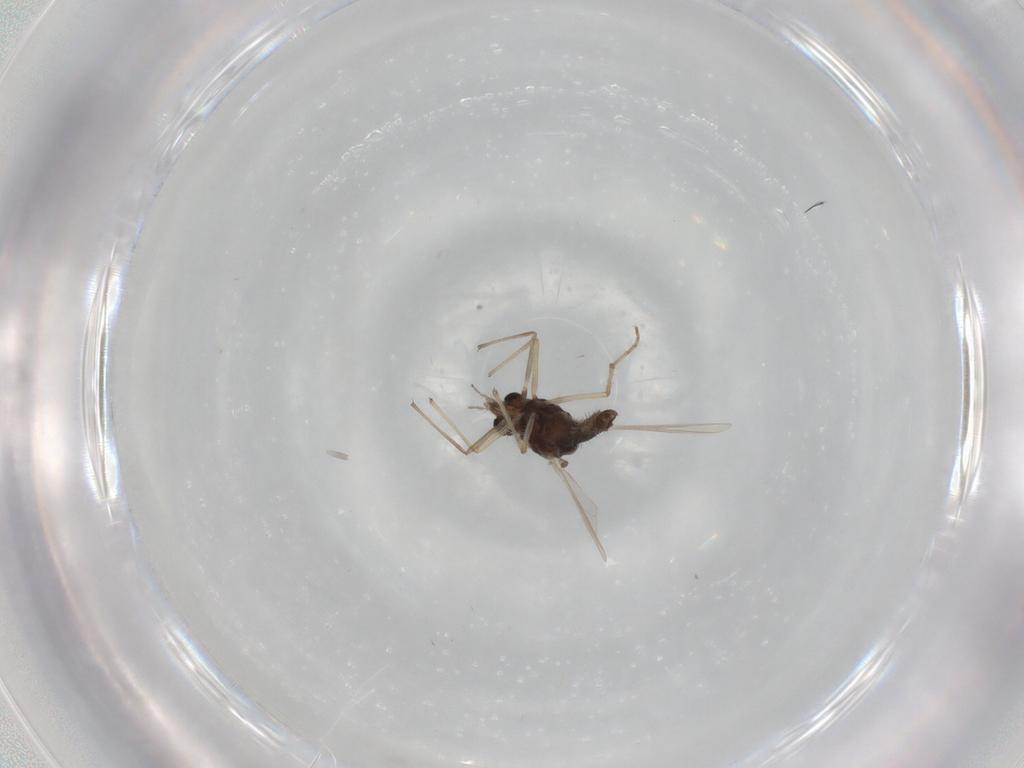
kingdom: Animalia
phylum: Arthropoda
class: Insecta
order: Diptera
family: Chironomidae
